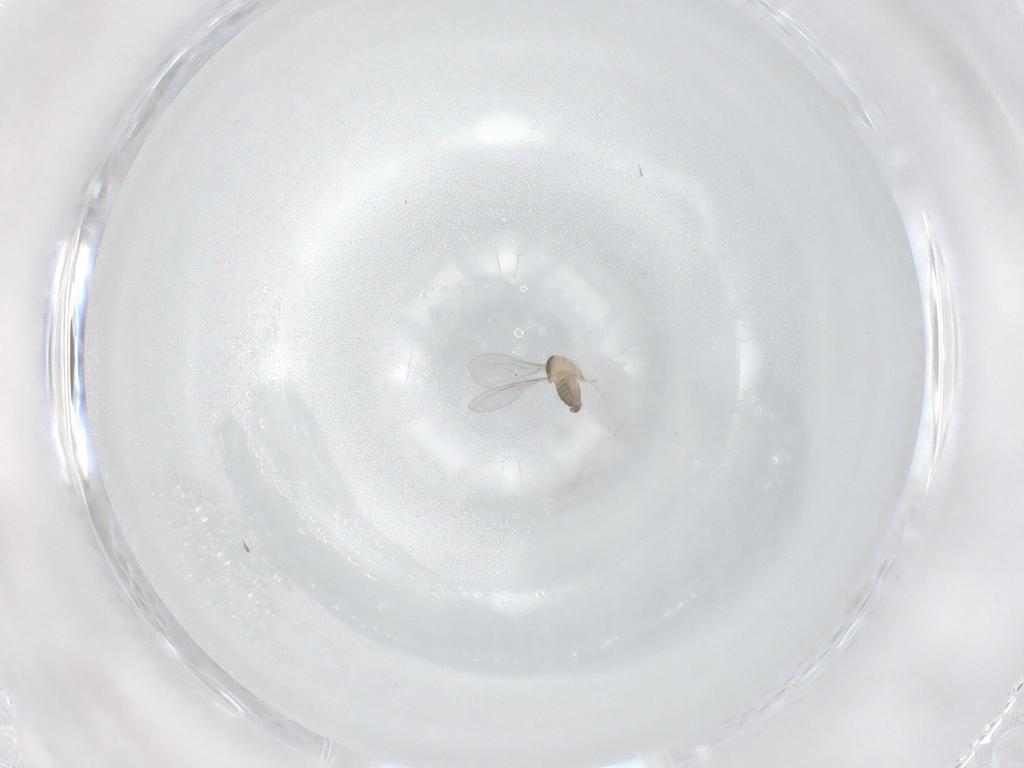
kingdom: Animalia
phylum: Arthropoda
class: Insecta
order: Diptera
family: Cecidomyiidae
